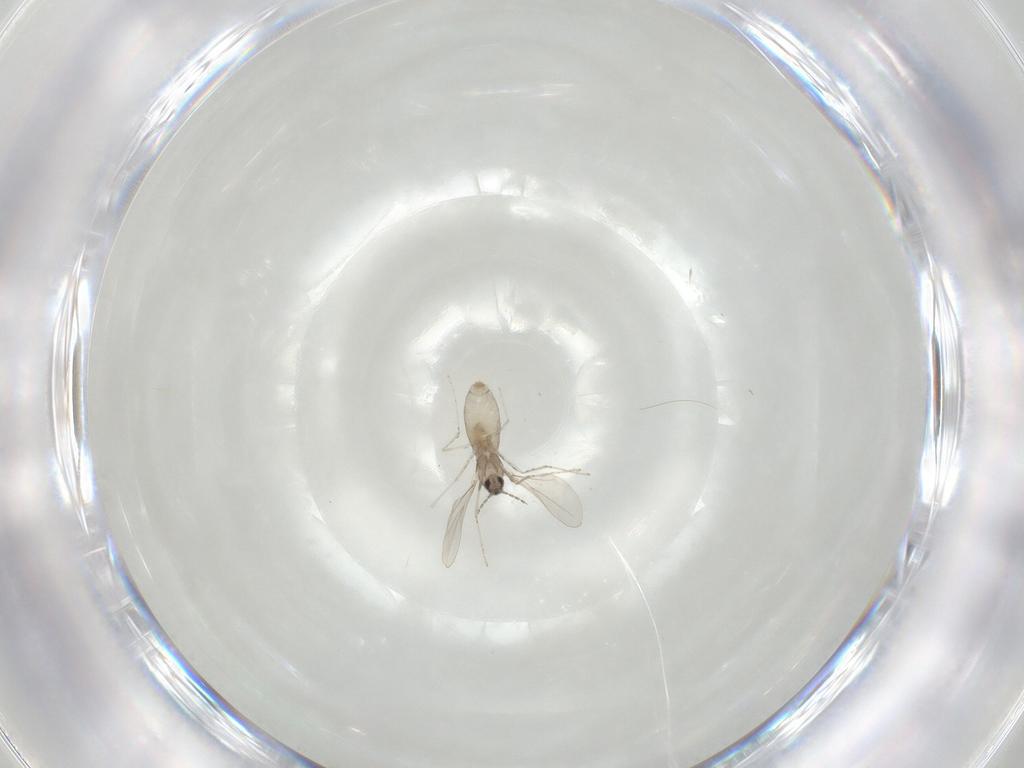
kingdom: Animalia
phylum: Arthropoda
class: Insecta
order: Diptera
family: Cecidomyiidae
